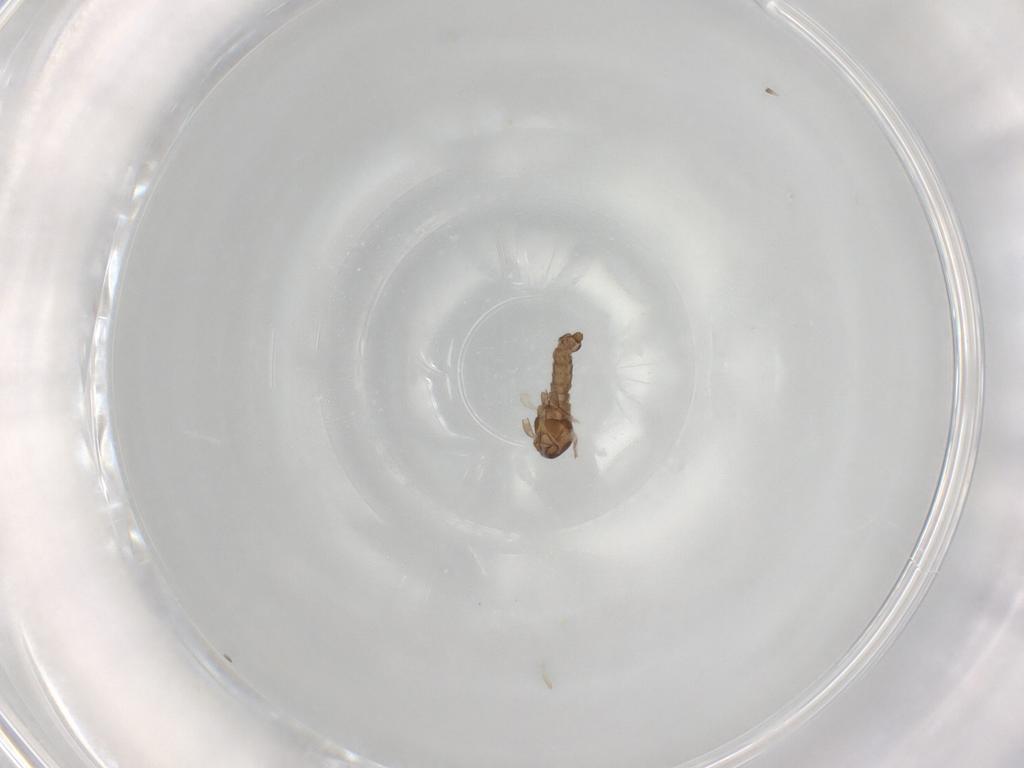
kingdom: Animalia
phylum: Arthropoda
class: Insecta
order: Diptera
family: Cecidomyiidae
